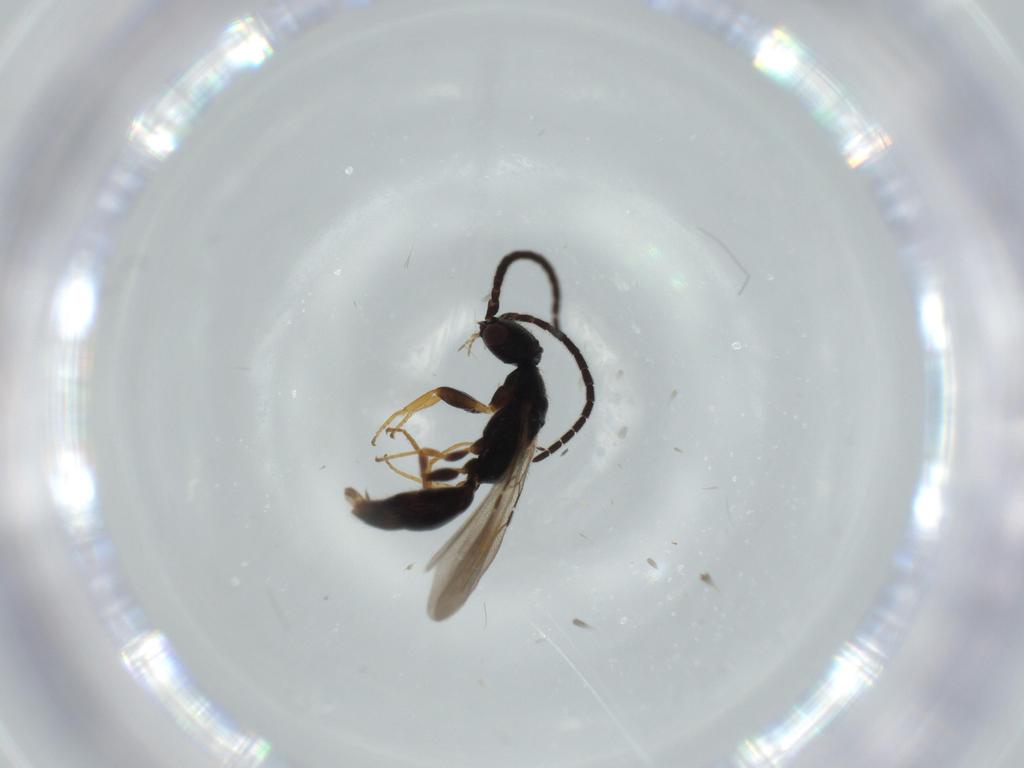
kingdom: Animalia
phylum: Arthropoda
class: Insecta
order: Hymenoptera
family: Bethylidae
